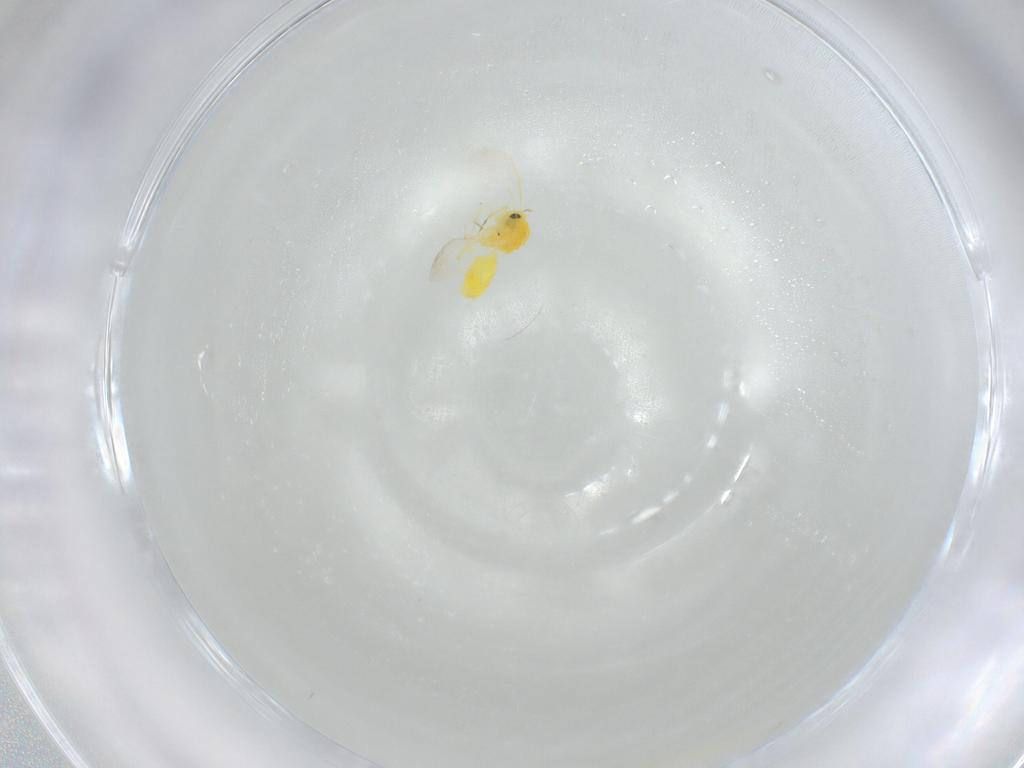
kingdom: Animalia
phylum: Arthropoda
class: Insecta
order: Hemiptera
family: Aleyrodidae
